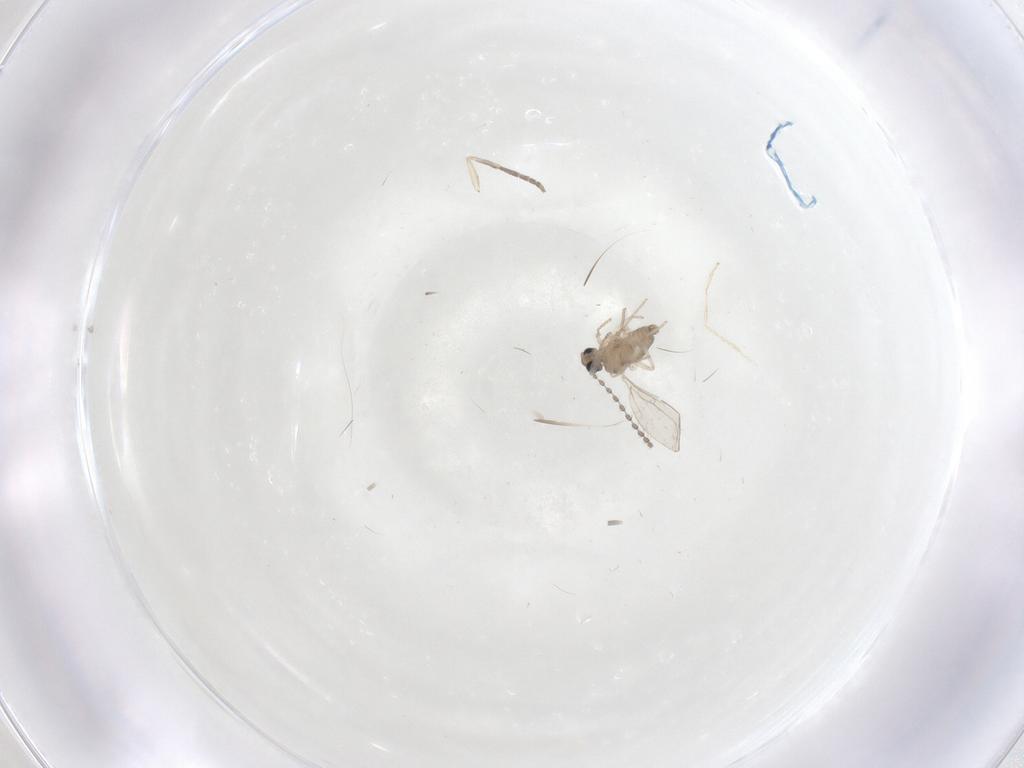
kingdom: Animalia
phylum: Arthropoda
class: Insecta
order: Diptera
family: Cecidomyiidae
